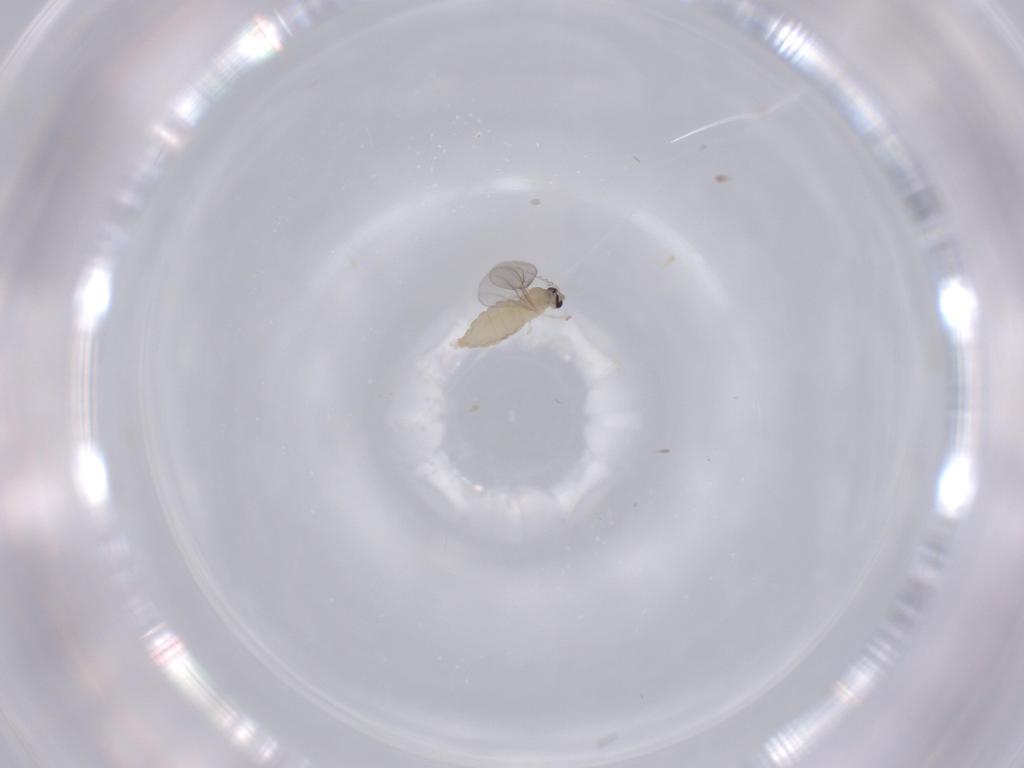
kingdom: Animalia
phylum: Arthropoda
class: Insecta
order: Diptera
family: Cecidomyiidae
